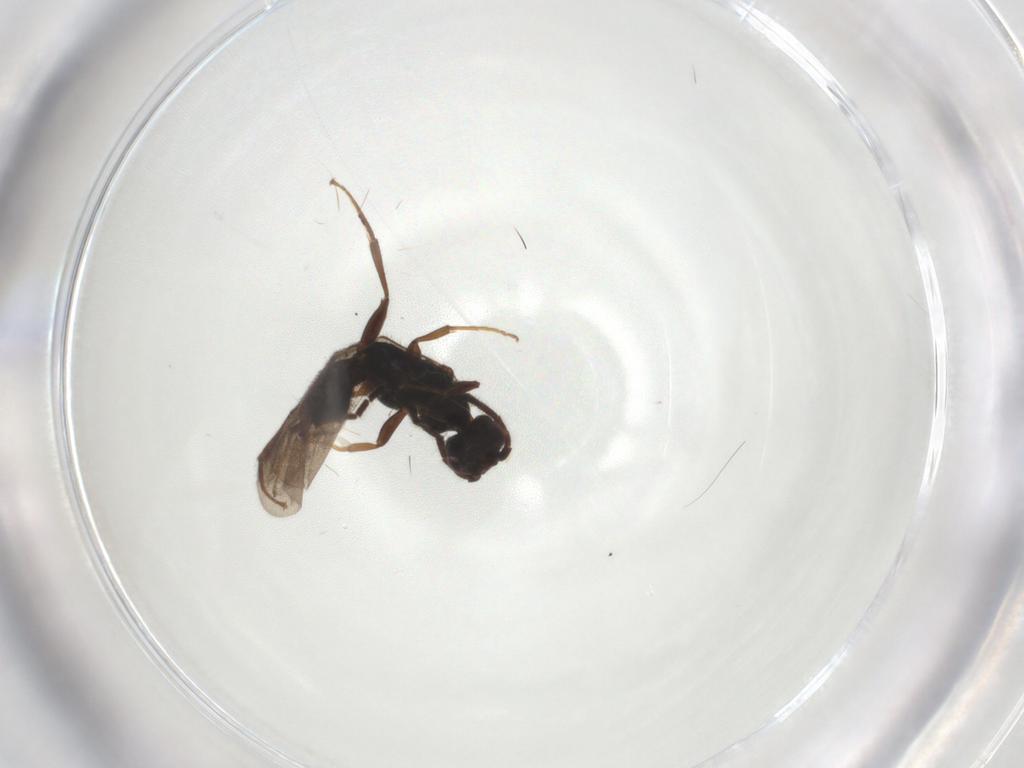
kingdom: Animalia
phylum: Arthropoda
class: Insecta
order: Hymenoptera
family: Bethylidae
